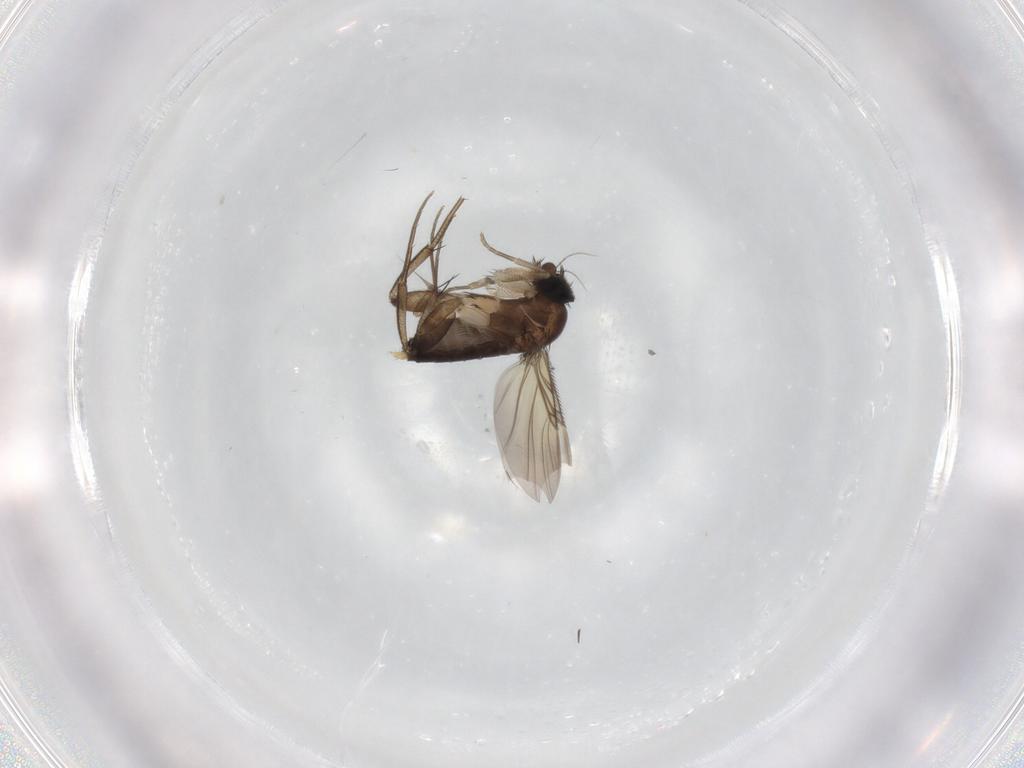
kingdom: Animalia
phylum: Arthropoda
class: Insecta
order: Diptera
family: Phoridae
